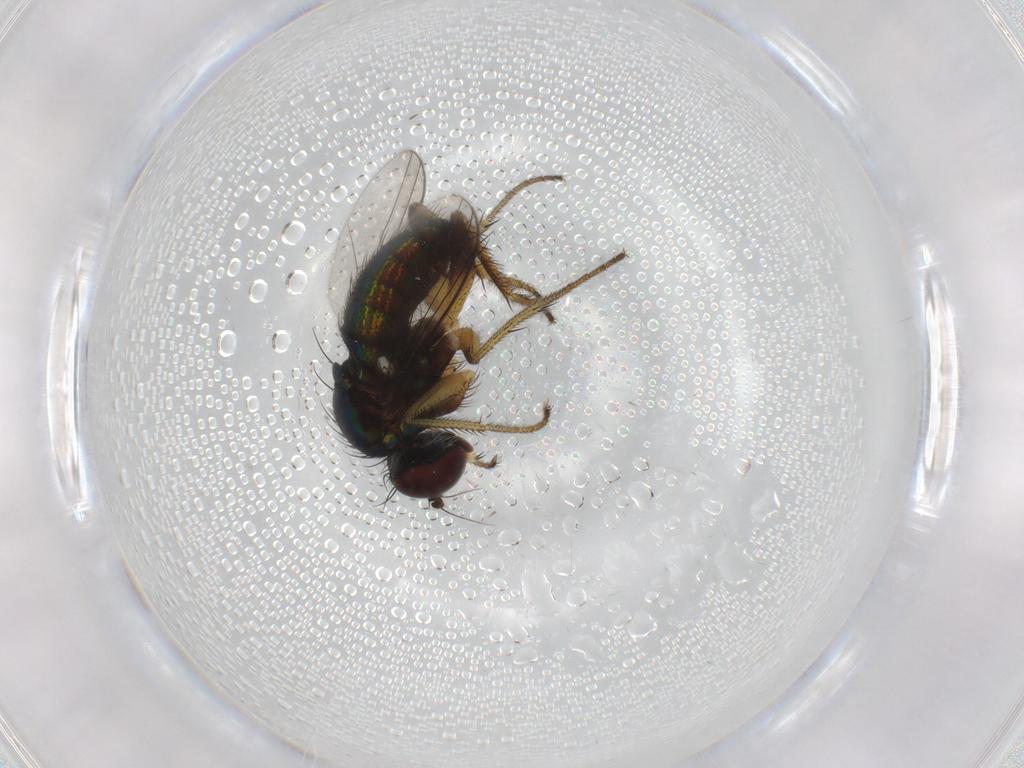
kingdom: Animalia
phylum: Arthropoda
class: Insecta
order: Diptera
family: Dolichopodidae
